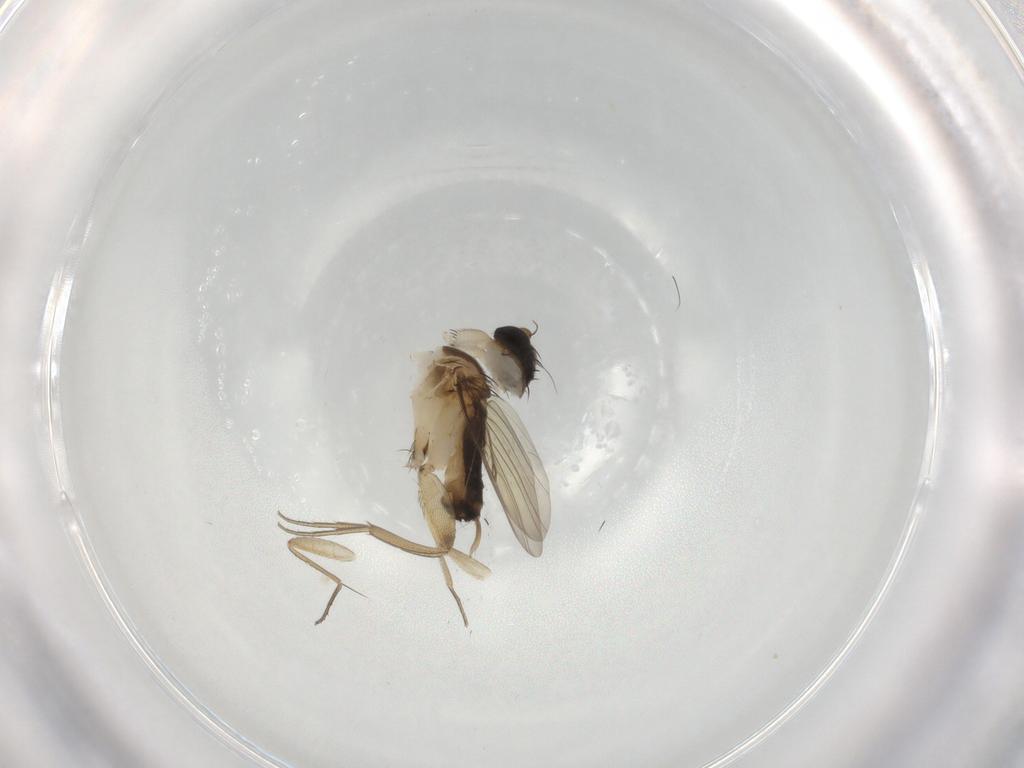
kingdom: Animalia
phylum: Arthropoda
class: Insecta
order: Diptera
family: Phoridae
